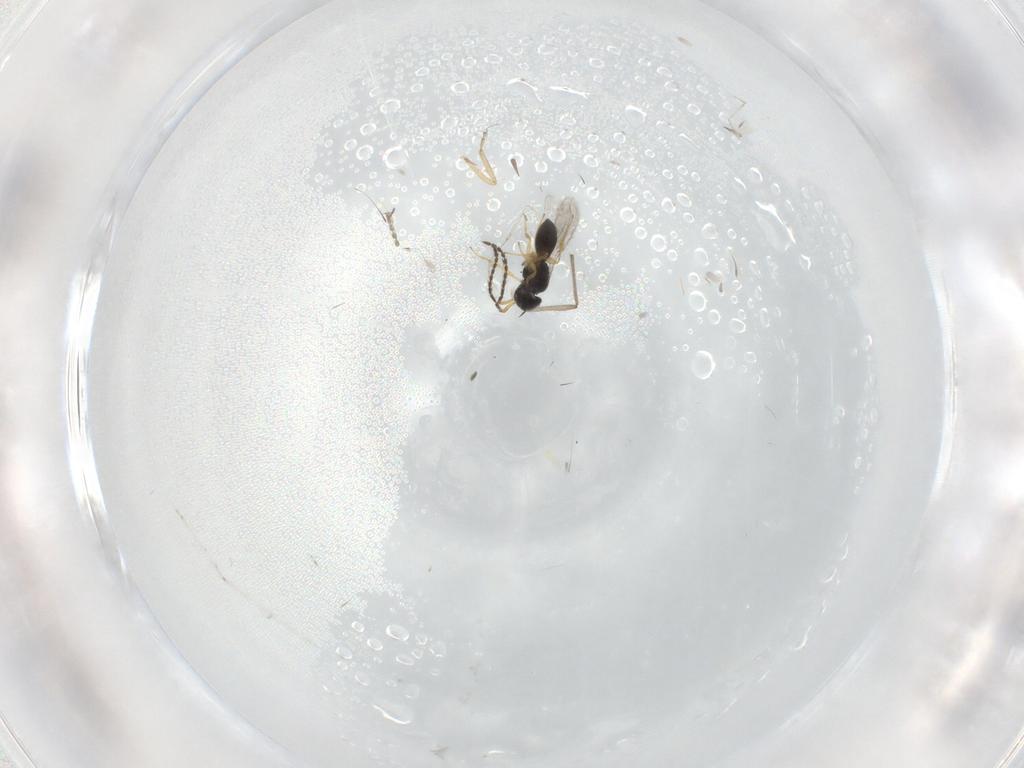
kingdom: Animalia
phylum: Arthropoda
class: Insecta
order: Hymenoptera
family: Scelionidae
